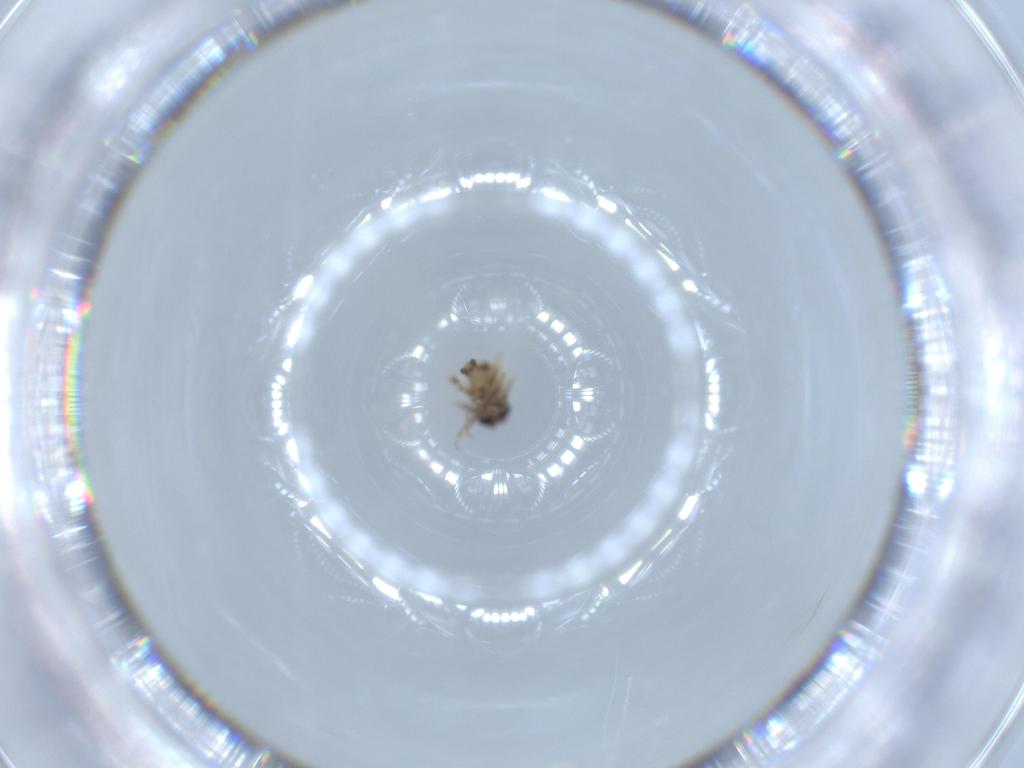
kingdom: Animalia
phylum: Arthropoda
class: Insecta
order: Diptera
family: Ceratopogonidae
